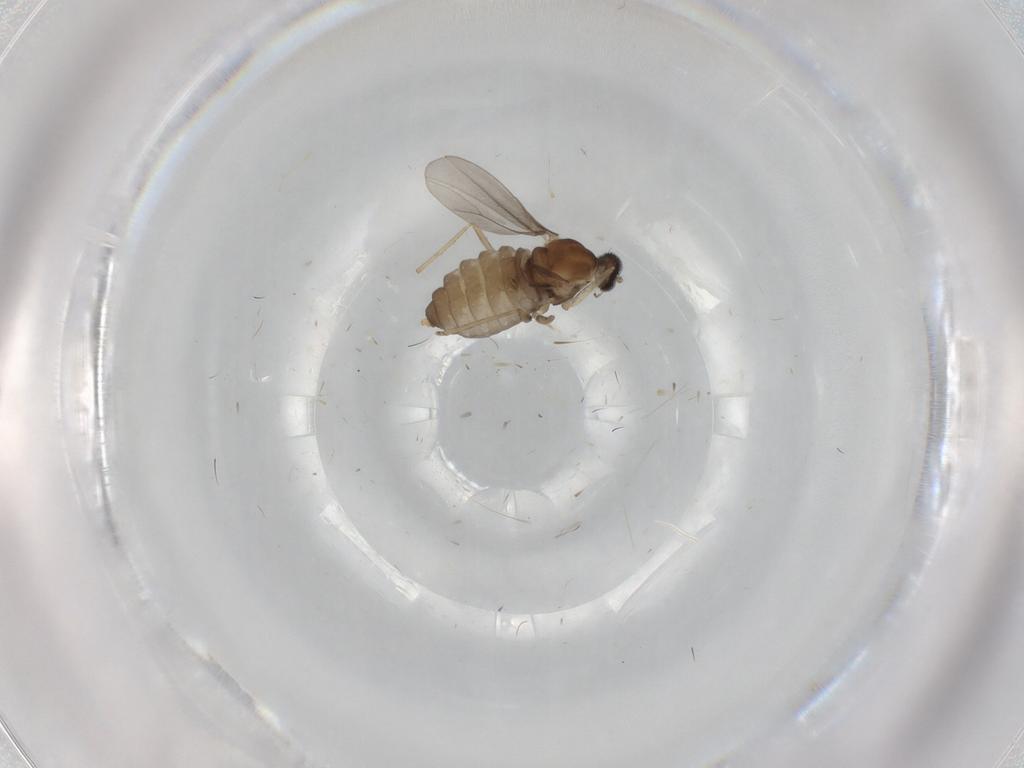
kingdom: Animalia
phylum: Arthropoda
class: Insecta
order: Diptera
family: Cecidomyiidae
